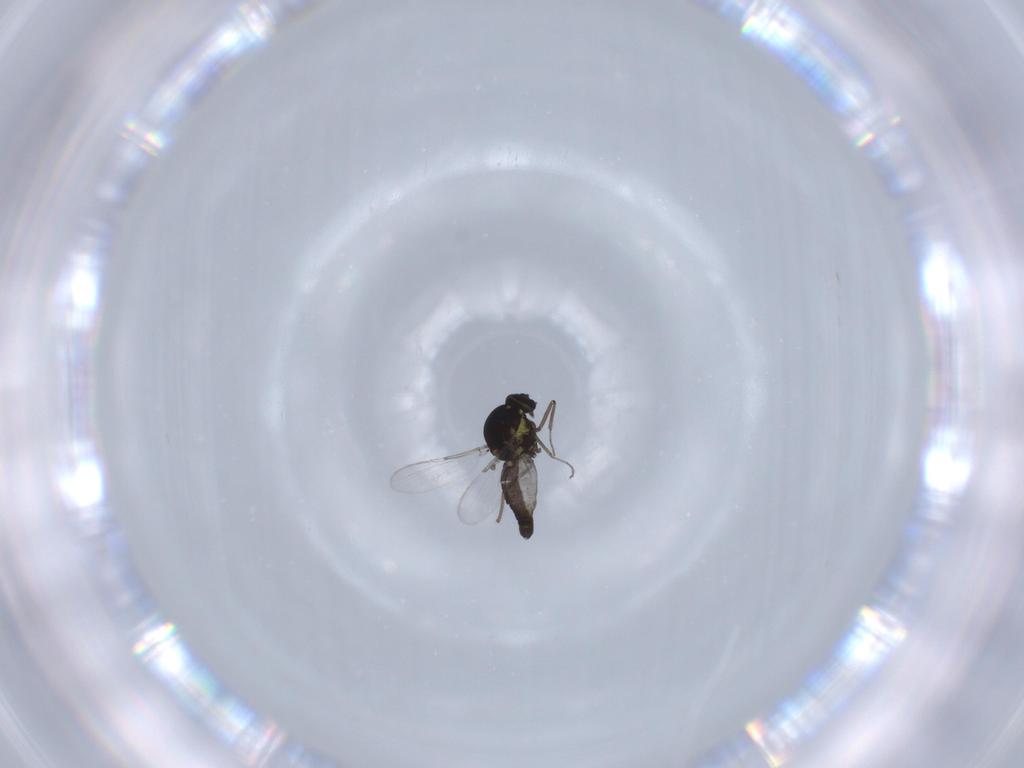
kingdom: Animalia
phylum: Arthropoda
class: Insecta
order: Diptera
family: Ceratopogonidae
